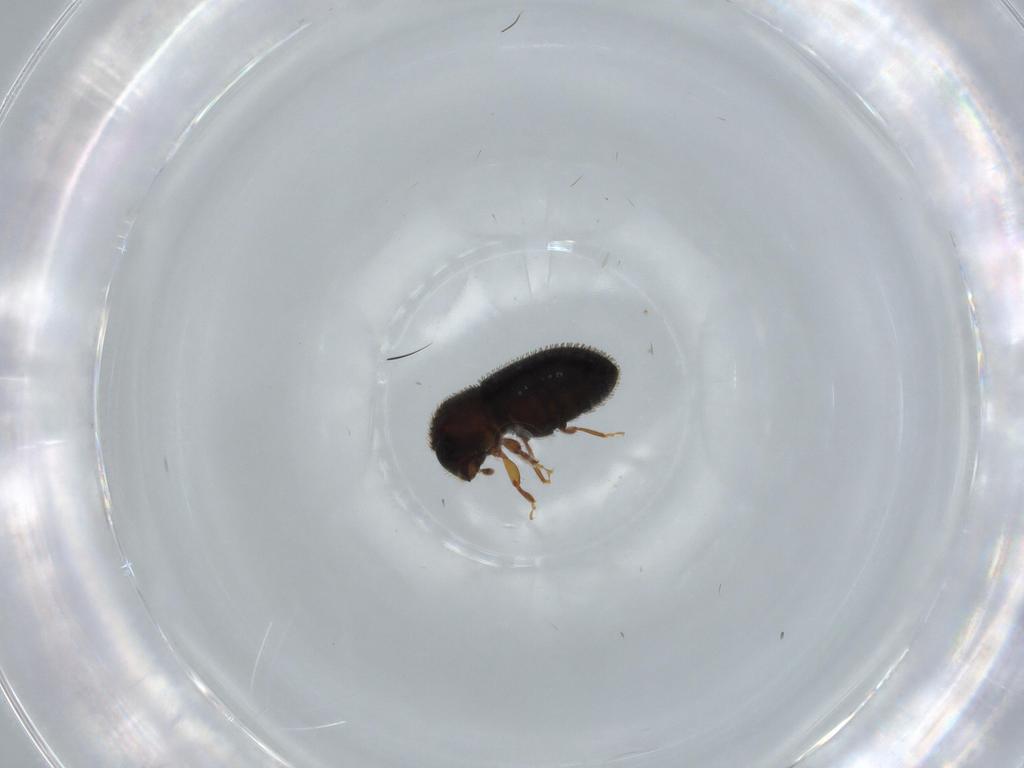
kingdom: Animalia
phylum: Arthropoda
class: Insecta
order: Coleoptera
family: Curculionidae
